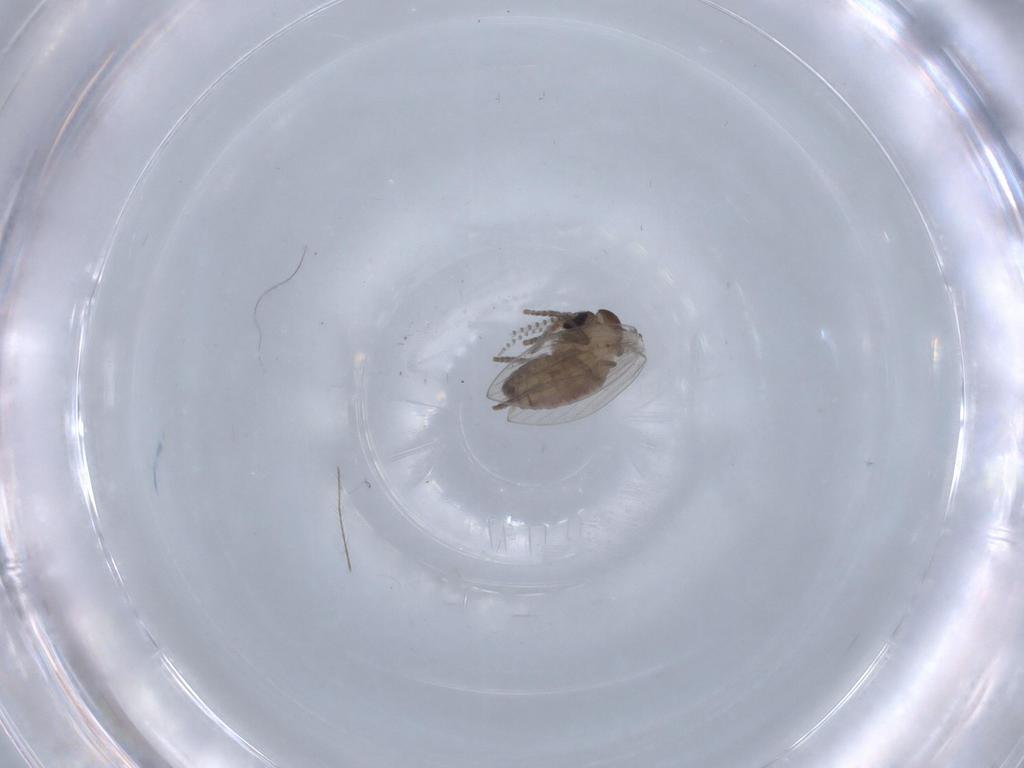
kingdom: Animalia
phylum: Arthropoda
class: Insecta
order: Diptera
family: Psychodidae
